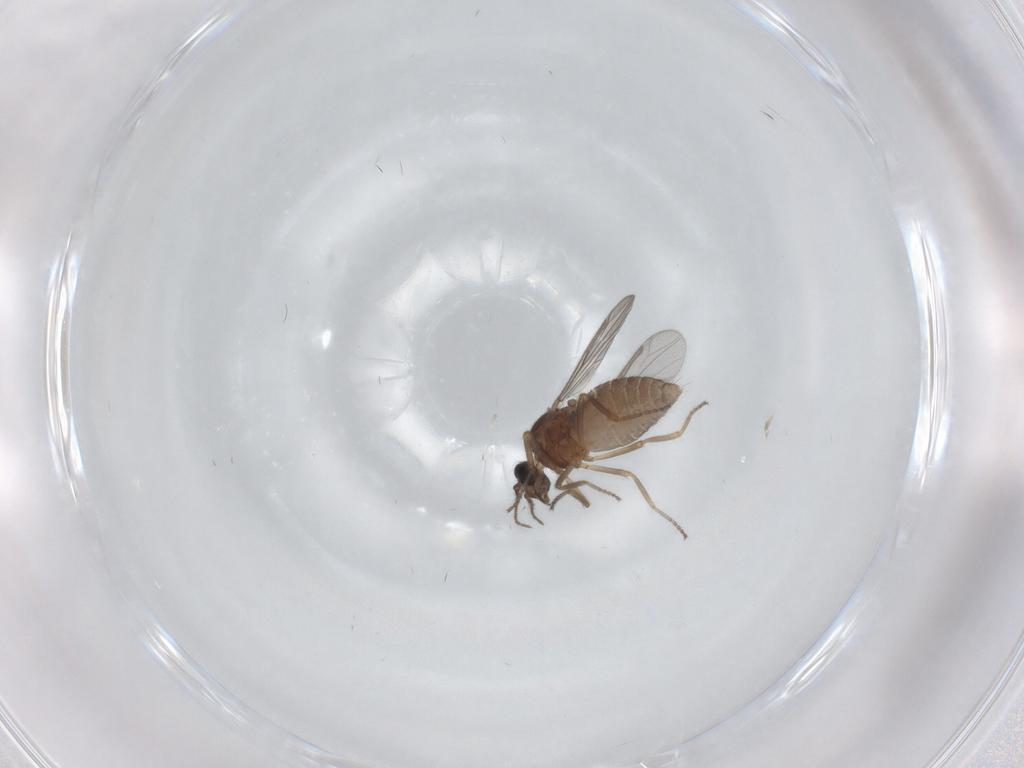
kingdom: Animalia
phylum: Arthropoda
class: Insecta
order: Diptera
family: Ceratopogonidae
